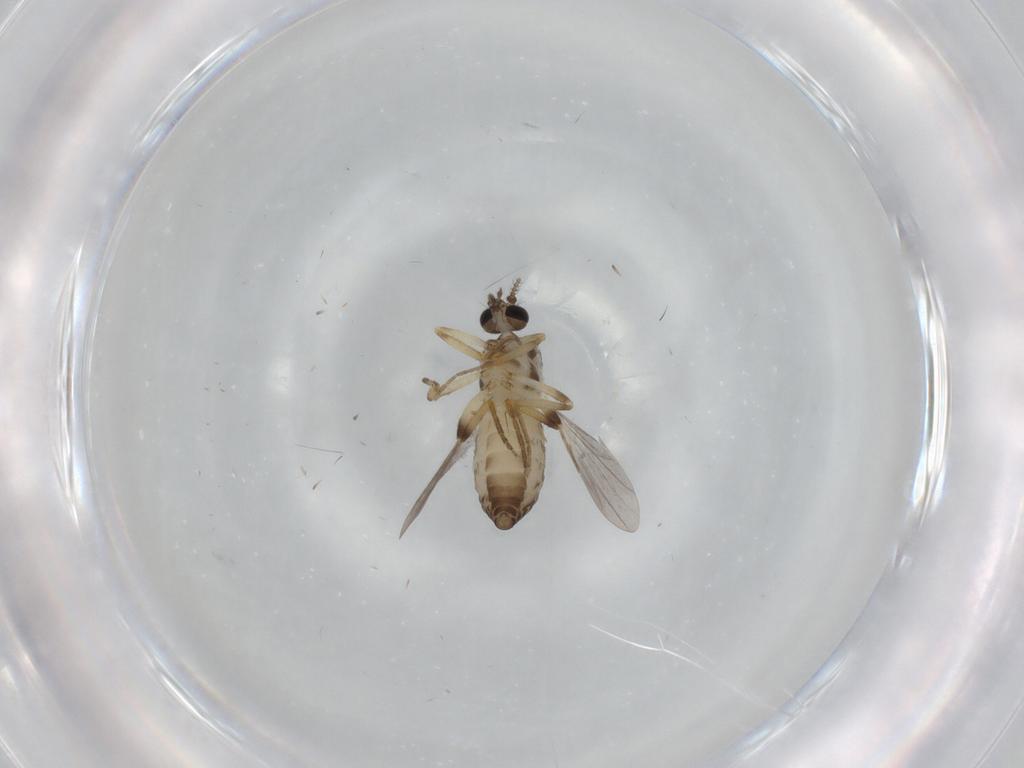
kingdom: Animalia
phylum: Arthropoda
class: Insecta
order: Diptera
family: Ceratopogonidae
